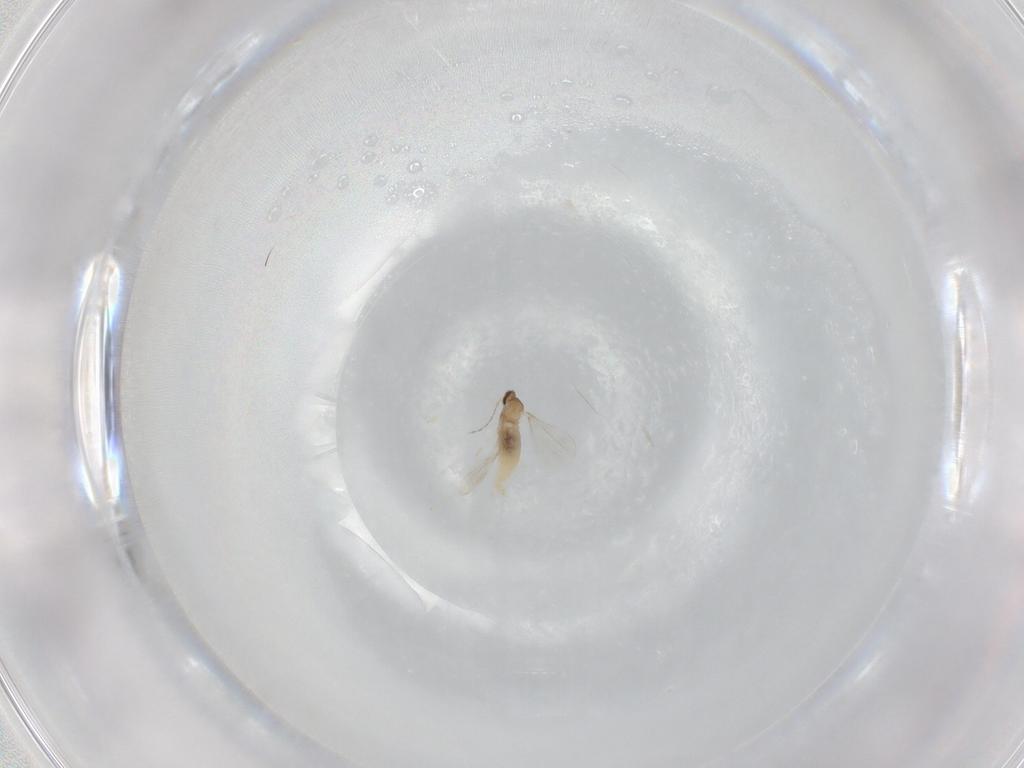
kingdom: Animalia
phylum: Arthropoda
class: Insecta
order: Diptera
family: Cecidomyiidae
